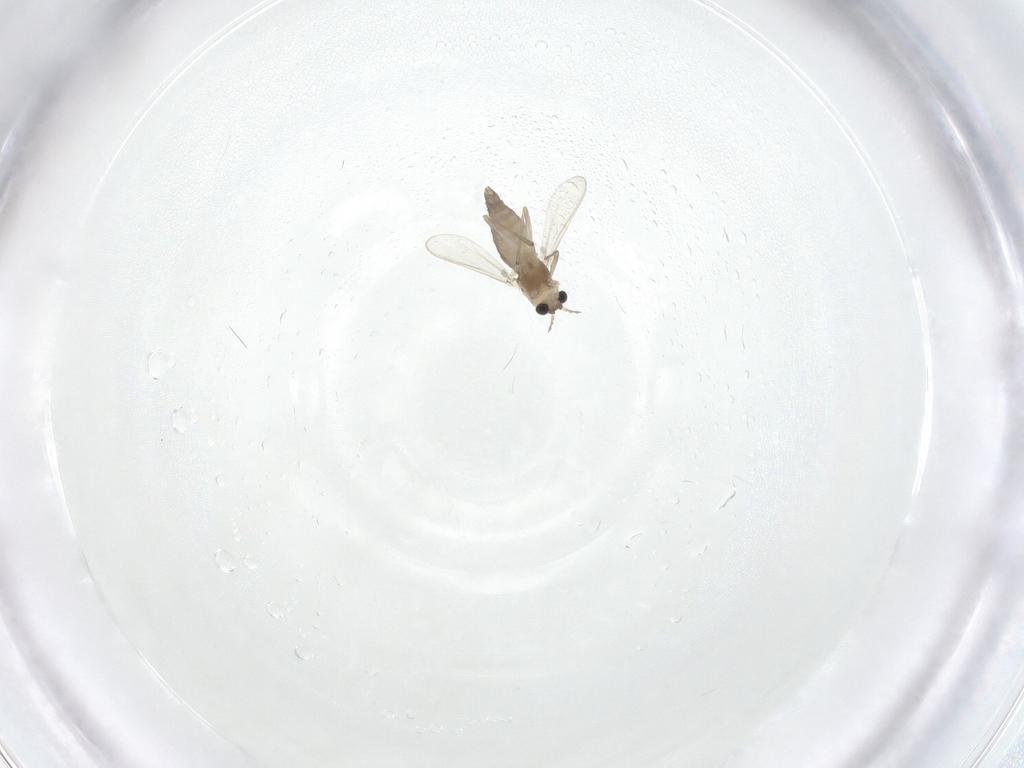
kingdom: Animalia
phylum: Arthropoda
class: Insecta
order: Diptera
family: Chironomidae
